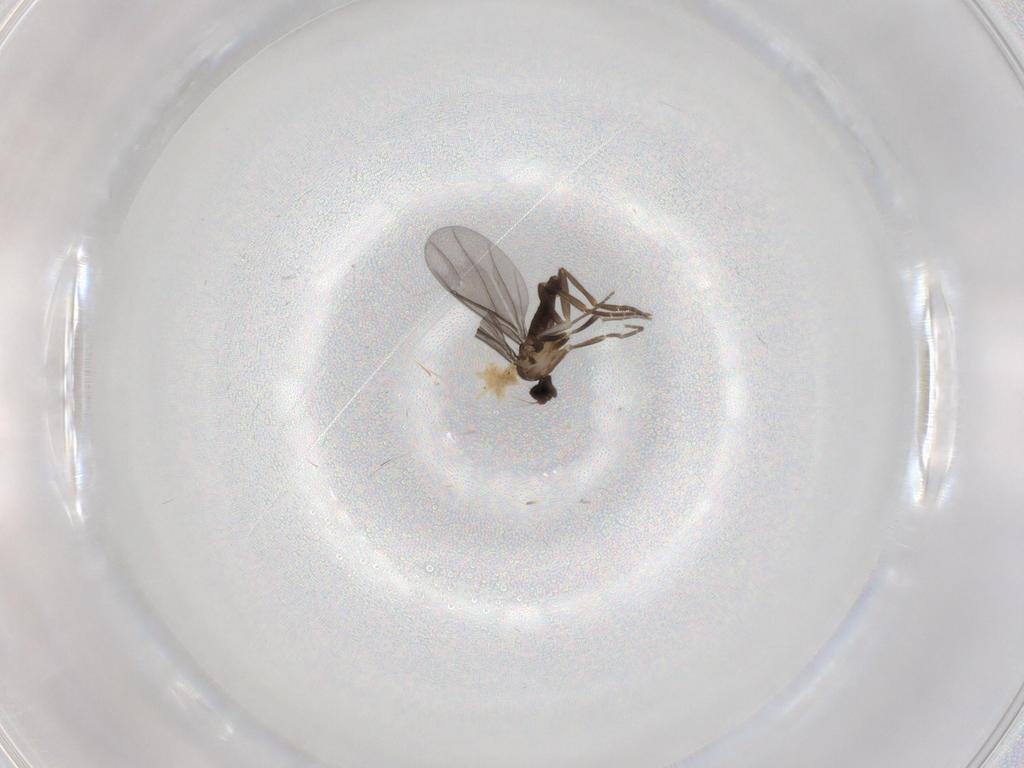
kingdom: Animalia
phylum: Arthropoda
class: Insecta
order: Diptera
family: Phoridae
